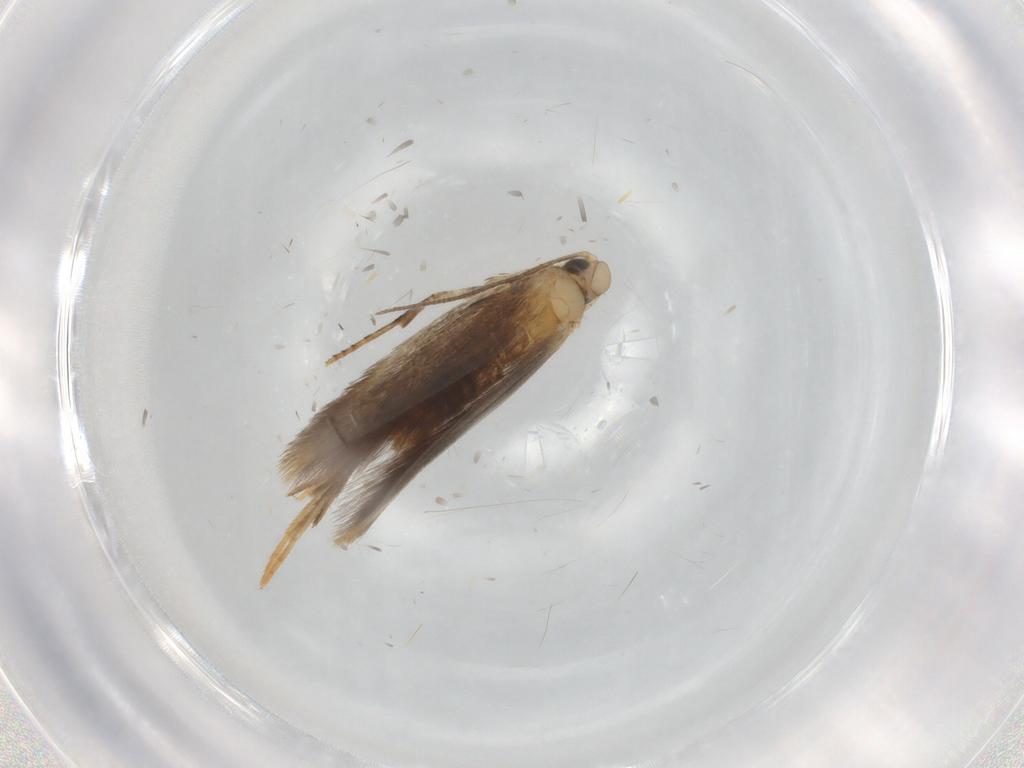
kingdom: Animalia
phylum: Arthropoda
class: Insecta
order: Lepidoptera
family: Tischeriidae
